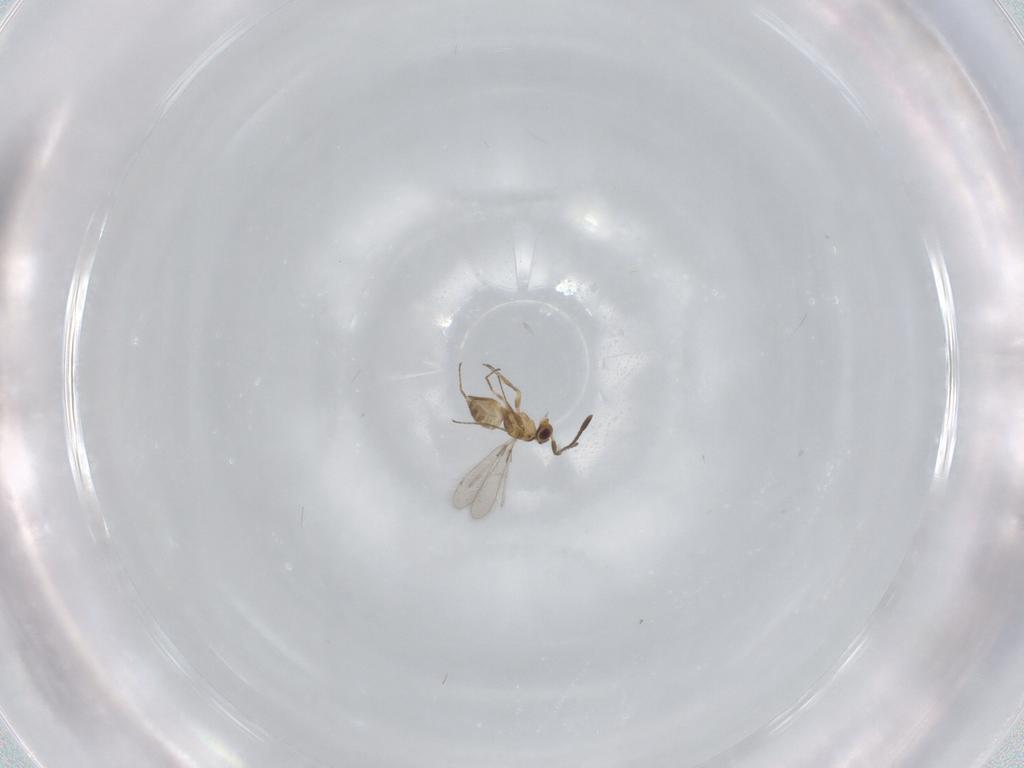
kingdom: Animalia
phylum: Arthropoda
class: Insecta
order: Hymenoptera
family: Mymaridae
